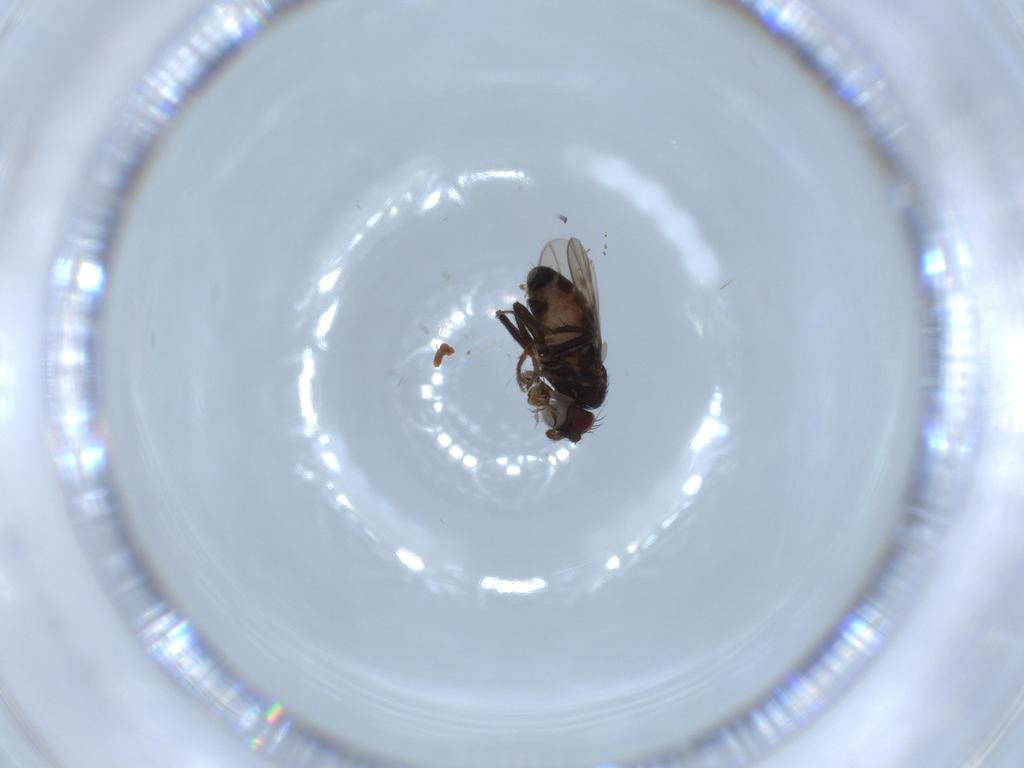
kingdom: Animalia
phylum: Arthropoda
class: Insecta
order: Diptera
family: Sphaeroceridae
